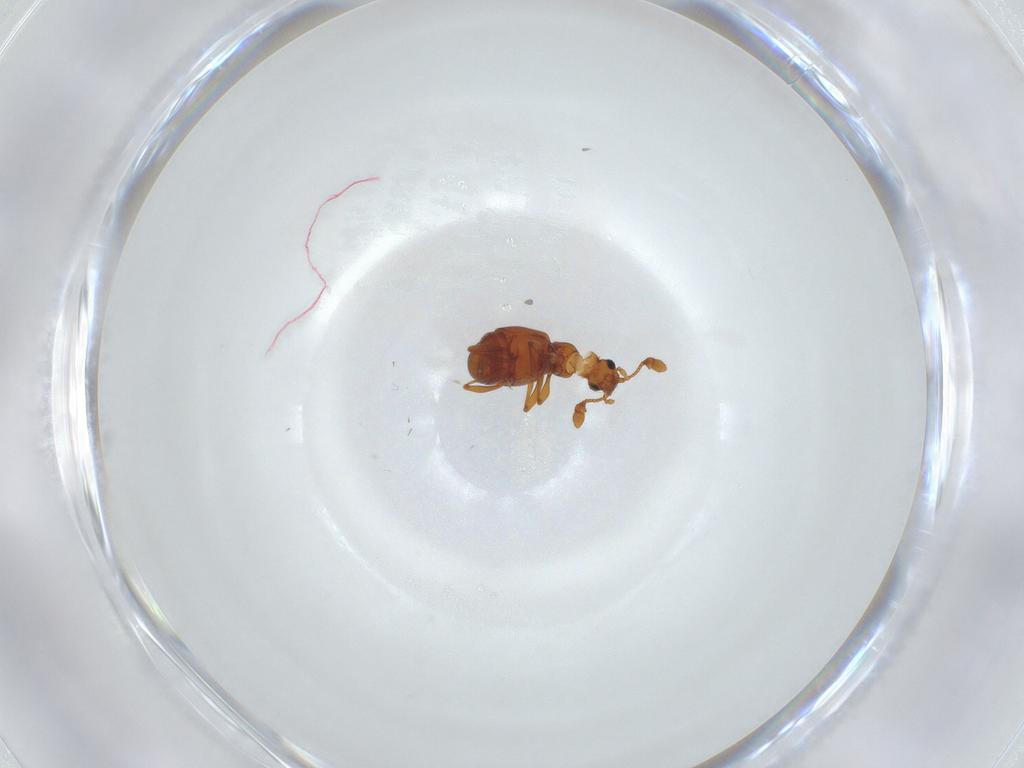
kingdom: Animalia
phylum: Arthropoda
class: Insecta
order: Coleoptera
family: Staphylinidae
